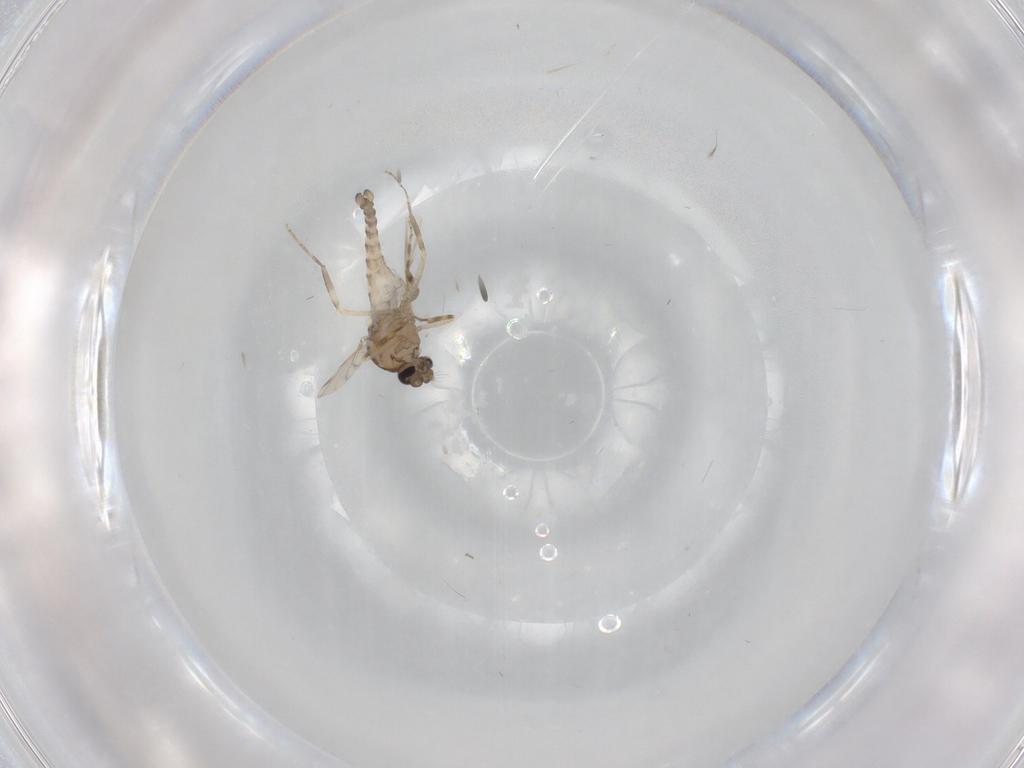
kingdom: Animalia
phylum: Arthropoda
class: Insecta
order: Diptera
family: Ceratopogonidae
